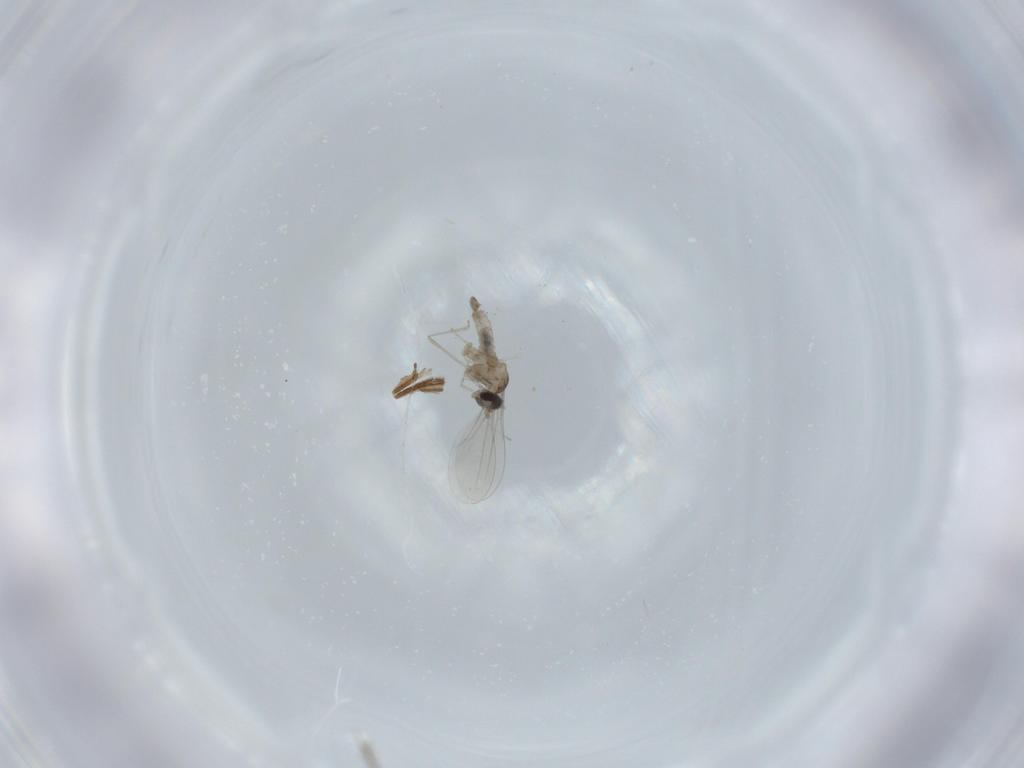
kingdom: Animalia
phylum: Arthropoda
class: Insecta
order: Diptera
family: Cecidomyiidae
